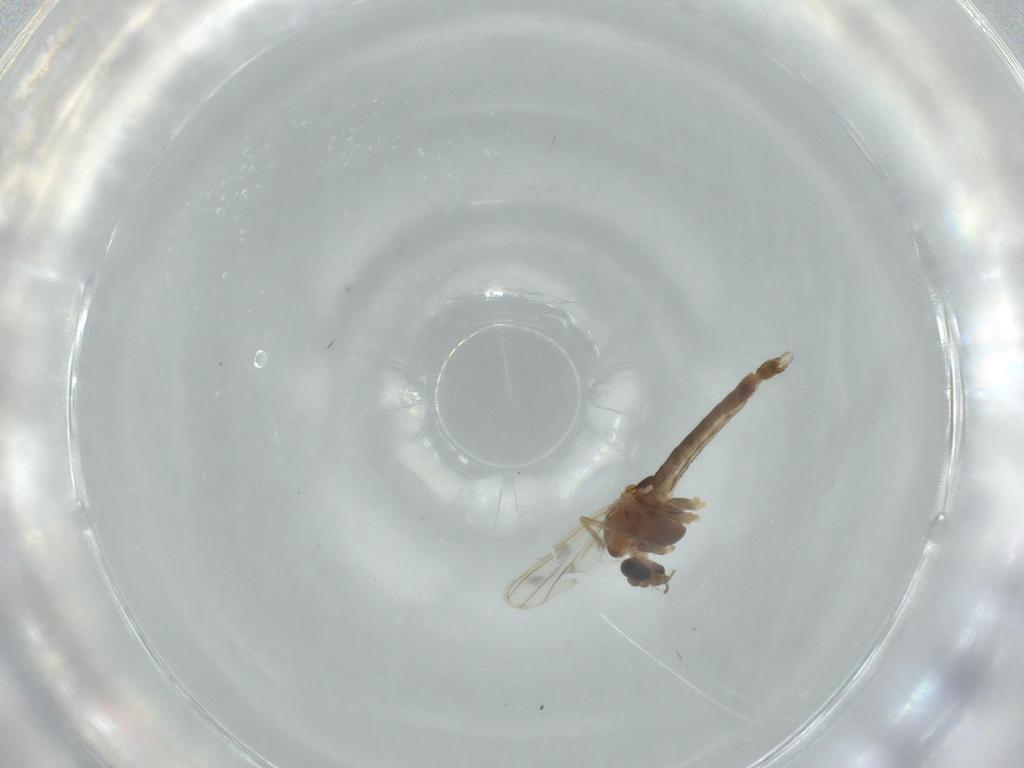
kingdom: Animalia
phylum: Arthropoda
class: Insecta
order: Diptera
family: Chironomidae
